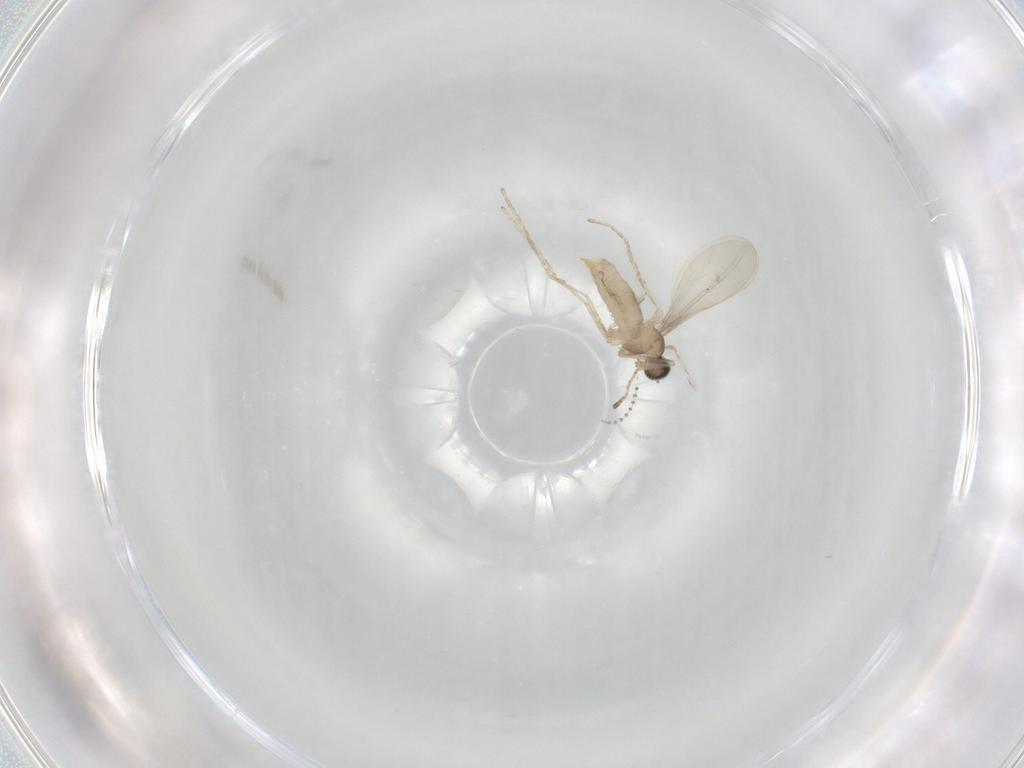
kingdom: Animalia
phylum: Arthropoda
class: Insecta
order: Diptera
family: Cecidomyiidae
